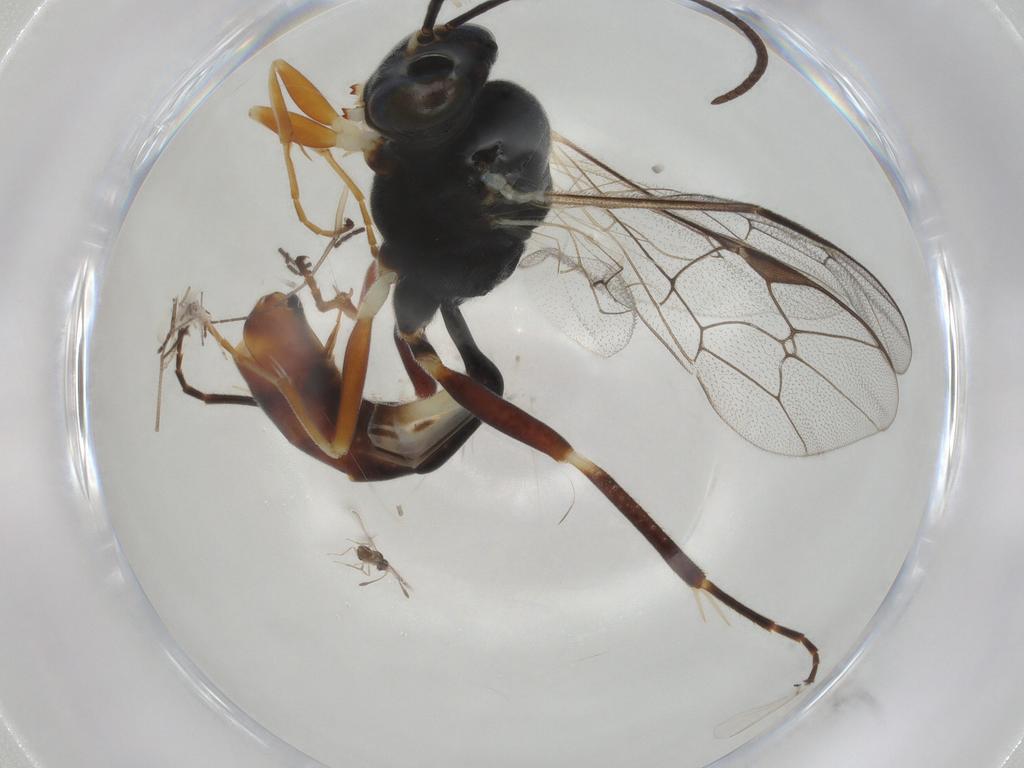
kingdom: Animalia
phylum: Arthropoda
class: Insecta
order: Hymenoptera
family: Ichneumonidae
